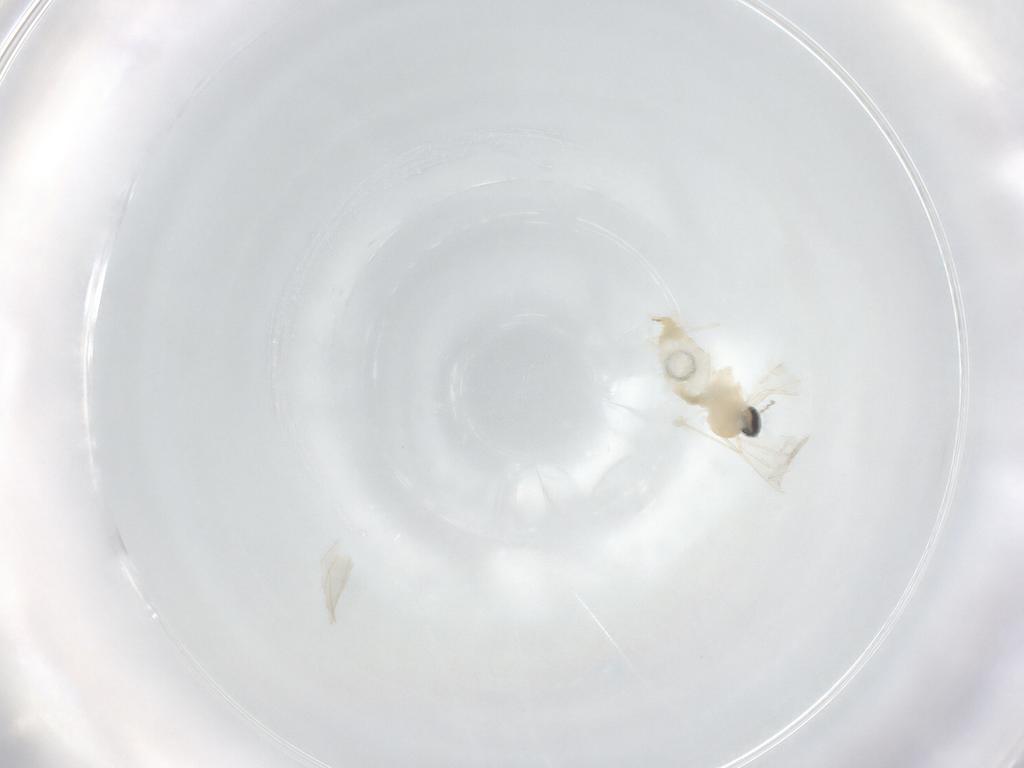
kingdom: Animalia
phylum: Arthropoda
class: Insecta
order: Diptera
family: Cecidomyiidae
